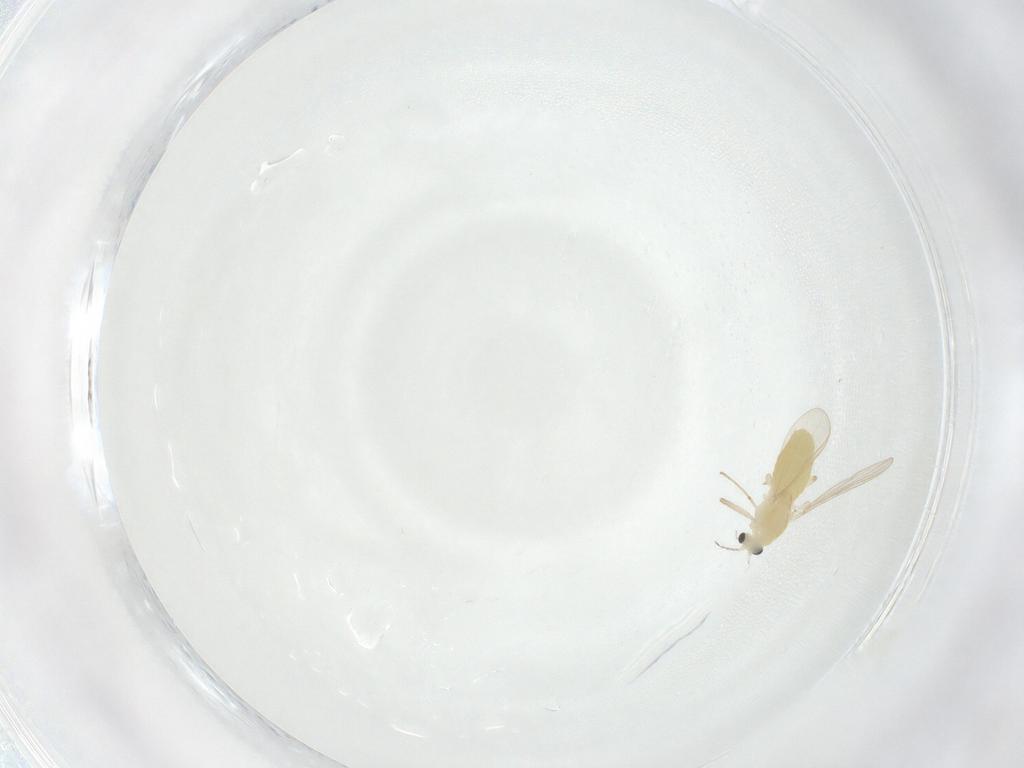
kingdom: Animalia
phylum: Arthropoda
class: Insecta
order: Diptera
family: Chironomidae
